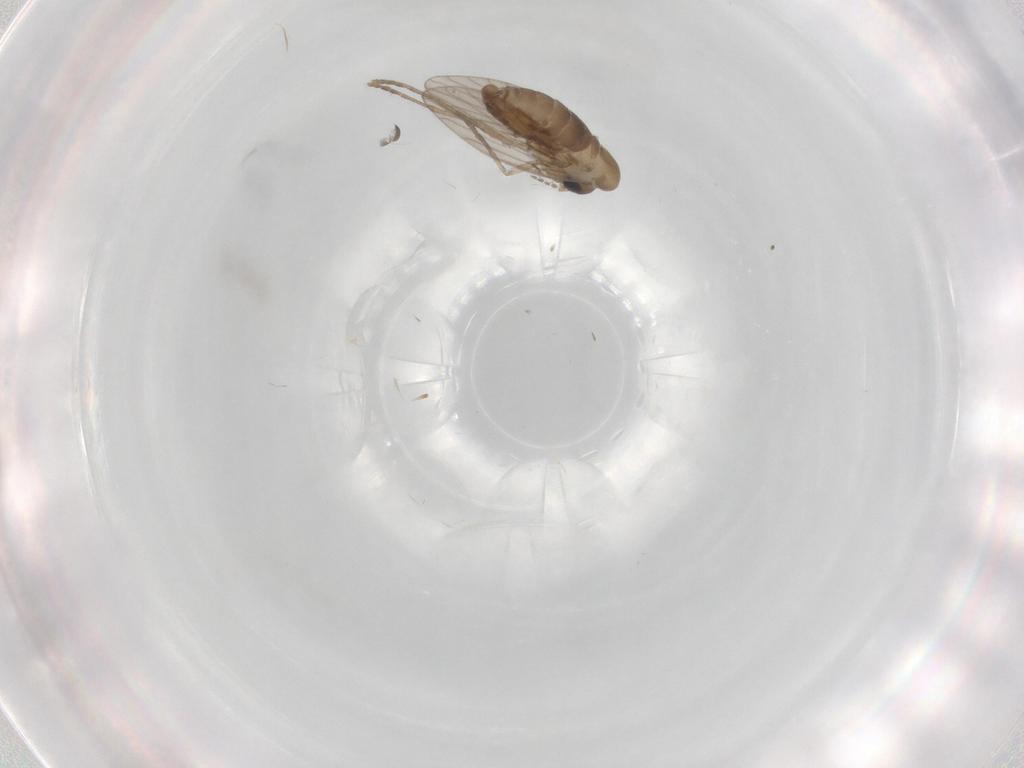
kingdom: Animalia
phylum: Arthropoda
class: Insecta
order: Diptera
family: Psychodidae
